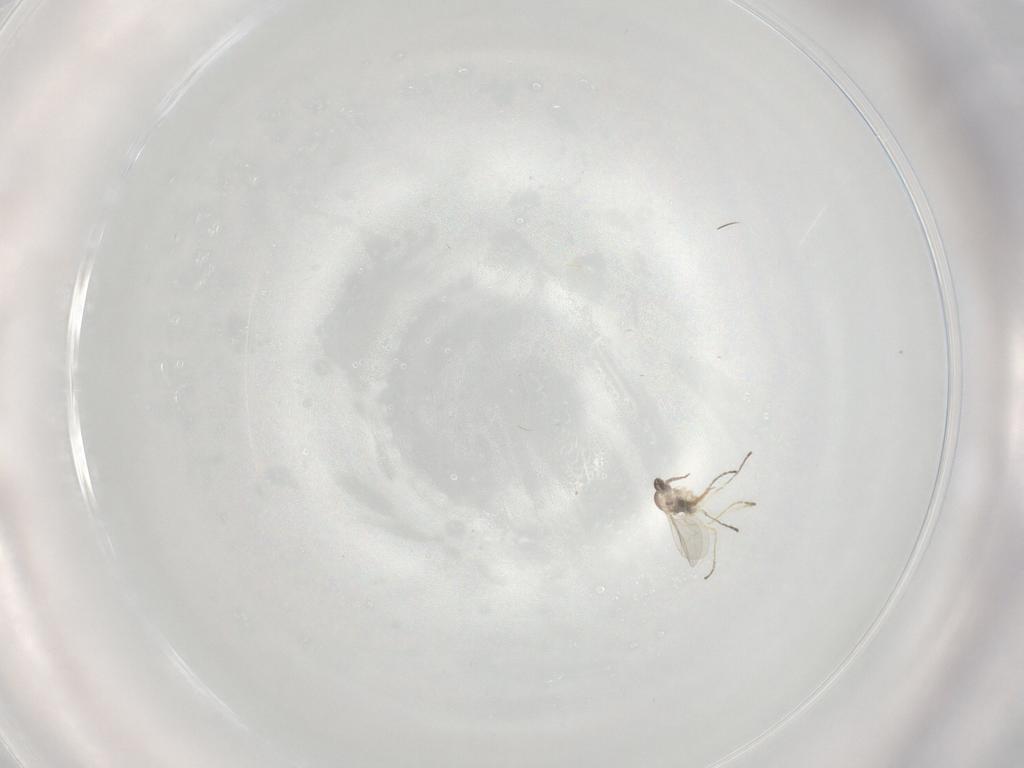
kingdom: Animalia
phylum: Arthropoda
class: Insecta
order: Diptera
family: Cecidomyiidae
